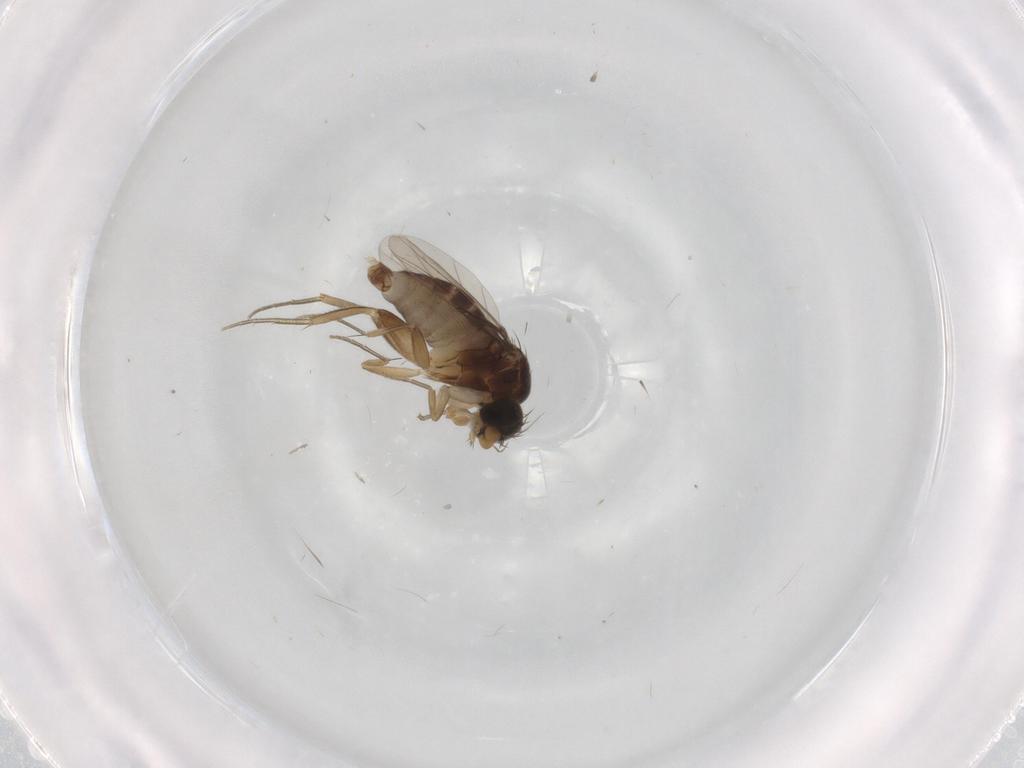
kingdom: Animalia
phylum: Arthropoda
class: Insecta
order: Diptera
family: Phoridae
